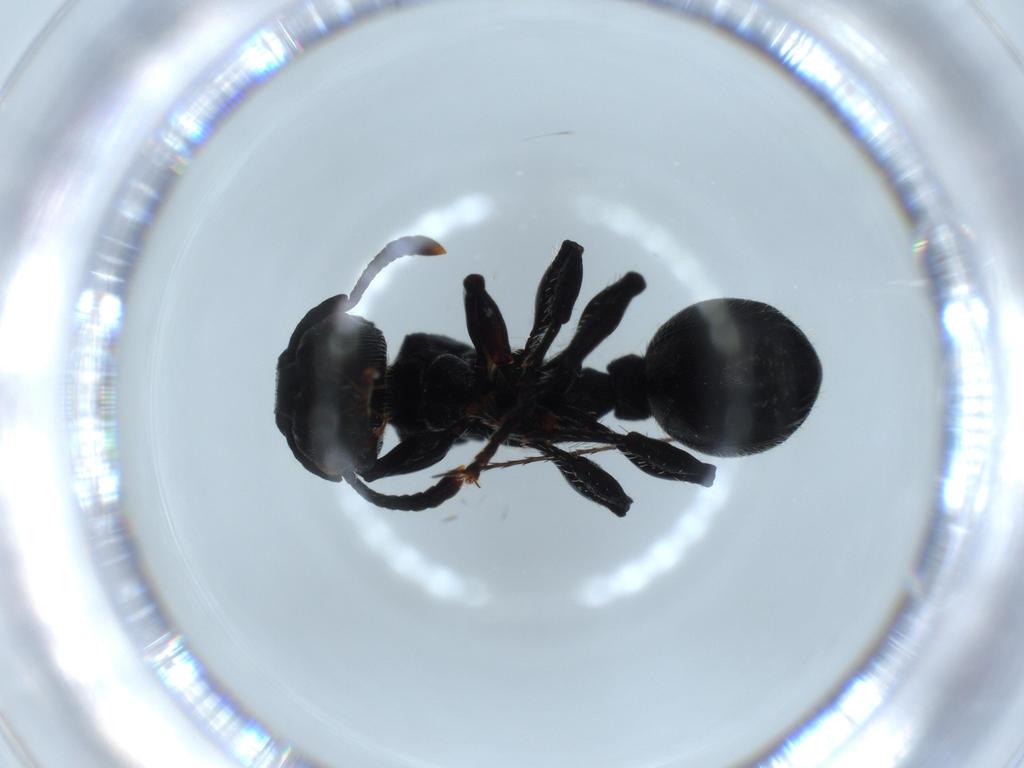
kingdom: Animalia
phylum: Arthropoda
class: Insecta
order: Hymenoptera
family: Formicidae
